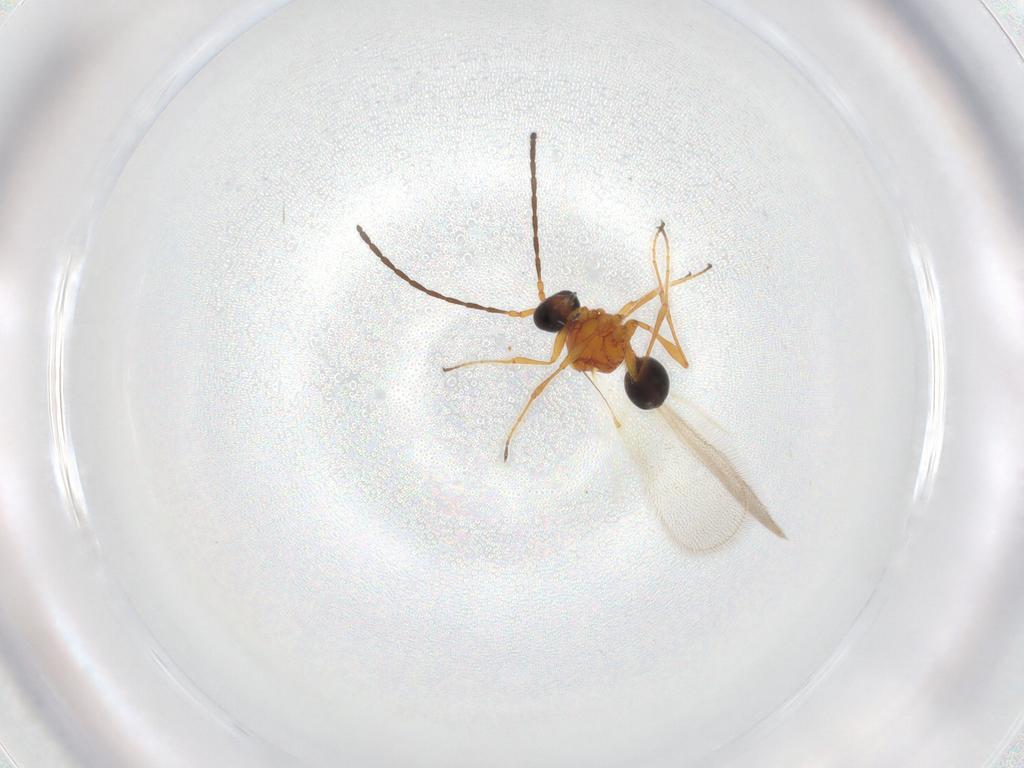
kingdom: Animalia
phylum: Arthropoda
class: Insecta
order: Hymenoptera
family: Diapriidae
